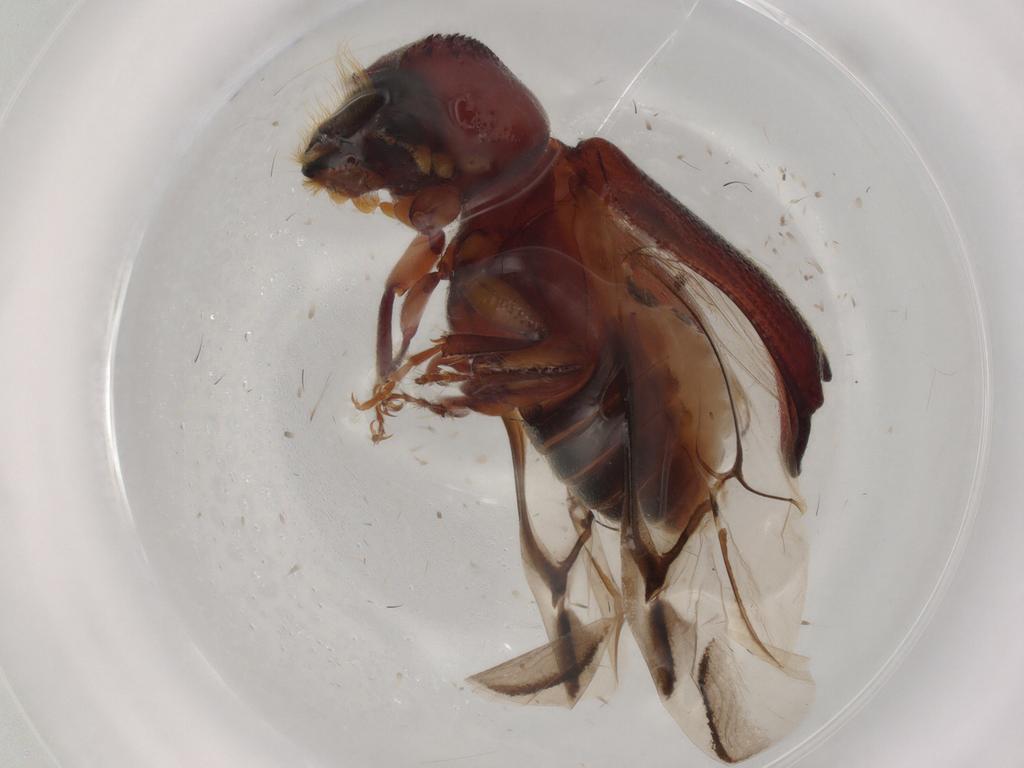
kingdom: Animalia
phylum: Arthropoda
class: Insecta
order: Coleoptera
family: Bostrichidae
